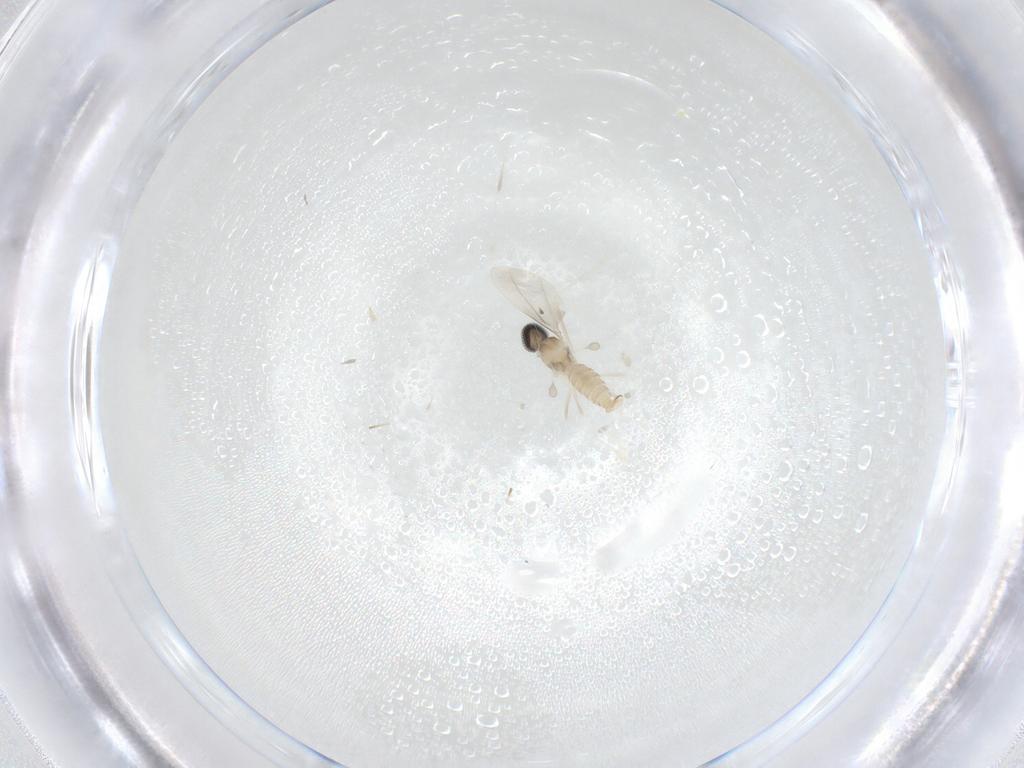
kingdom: Animalia
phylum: Arthropoda
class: Insecta
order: Diptera
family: Cecidomyiidae
